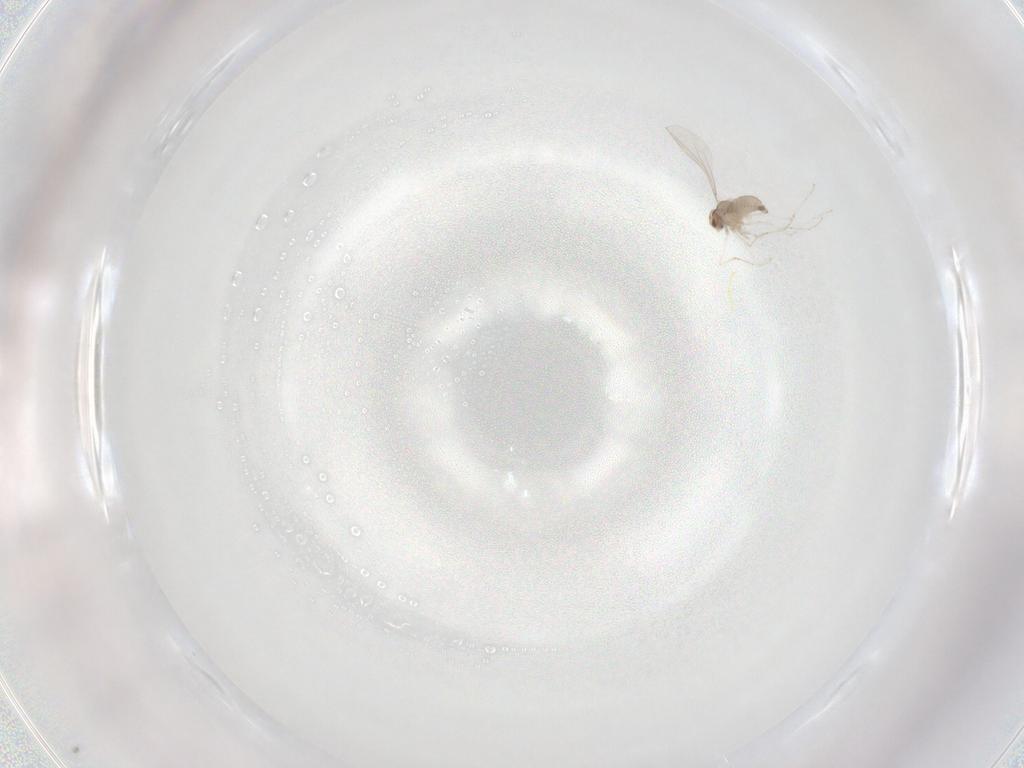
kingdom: Animalia
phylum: Arthropoda
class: Insecta
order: Diptera
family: Cecidomyiidae
